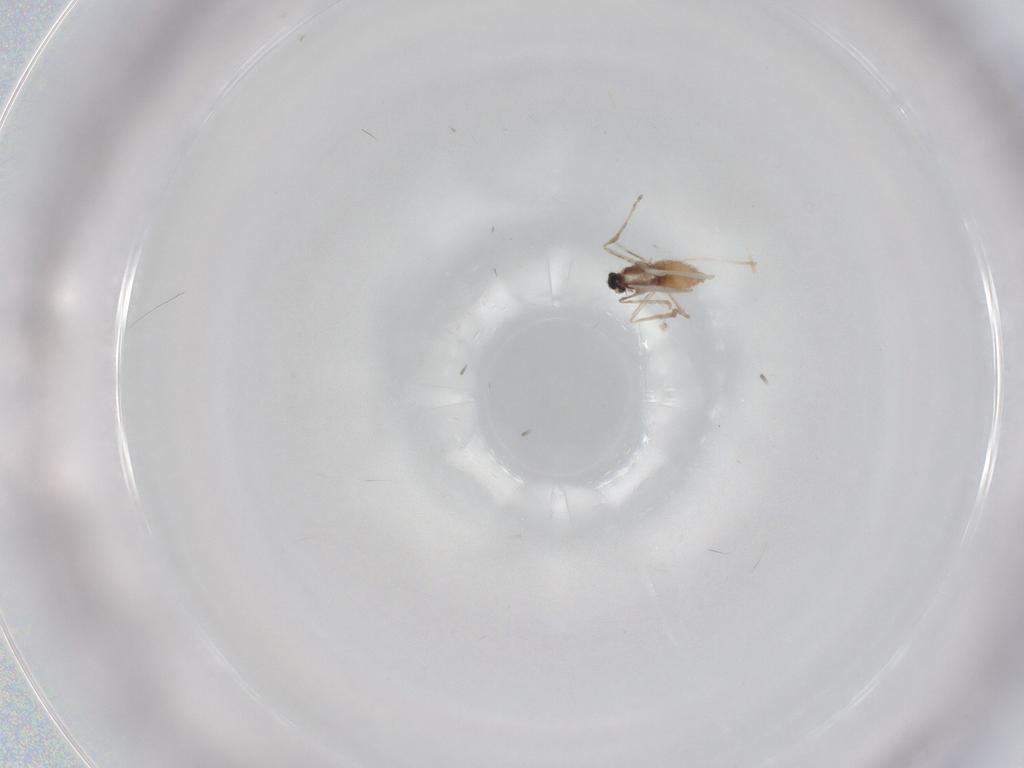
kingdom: Animalia
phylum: Arthropoda
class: Insecta
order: Diptera
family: Cecidomyiidae
